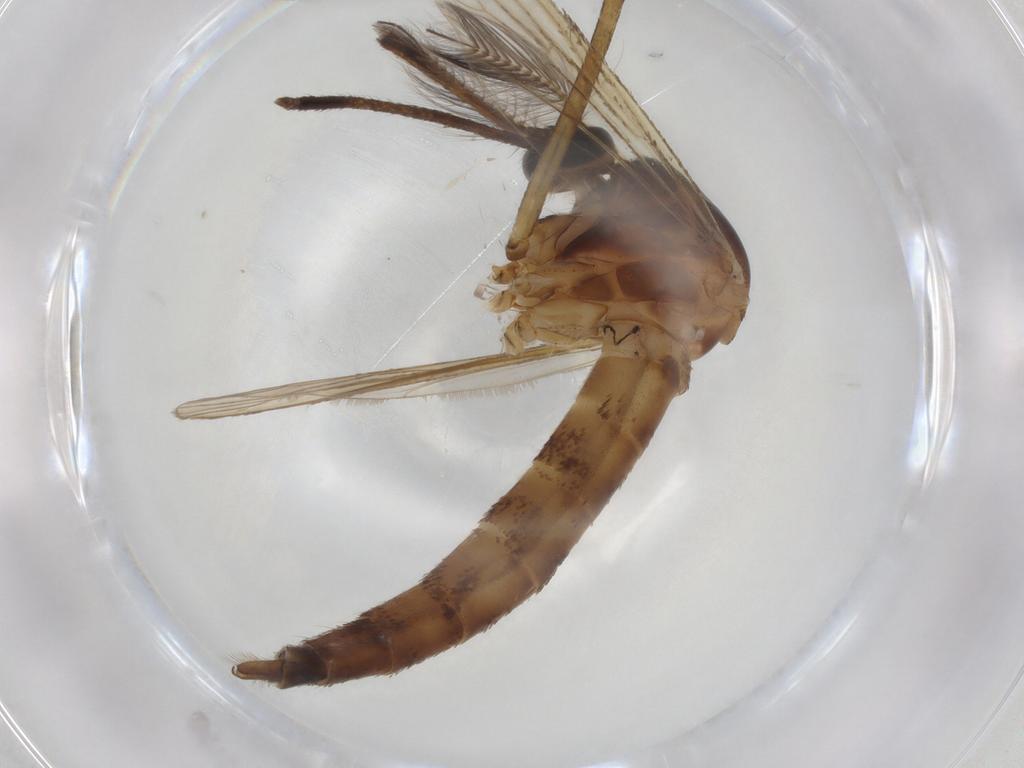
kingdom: Animalia
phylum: Arthropoda
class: Insecta
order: Diptera
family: Sciaridae
